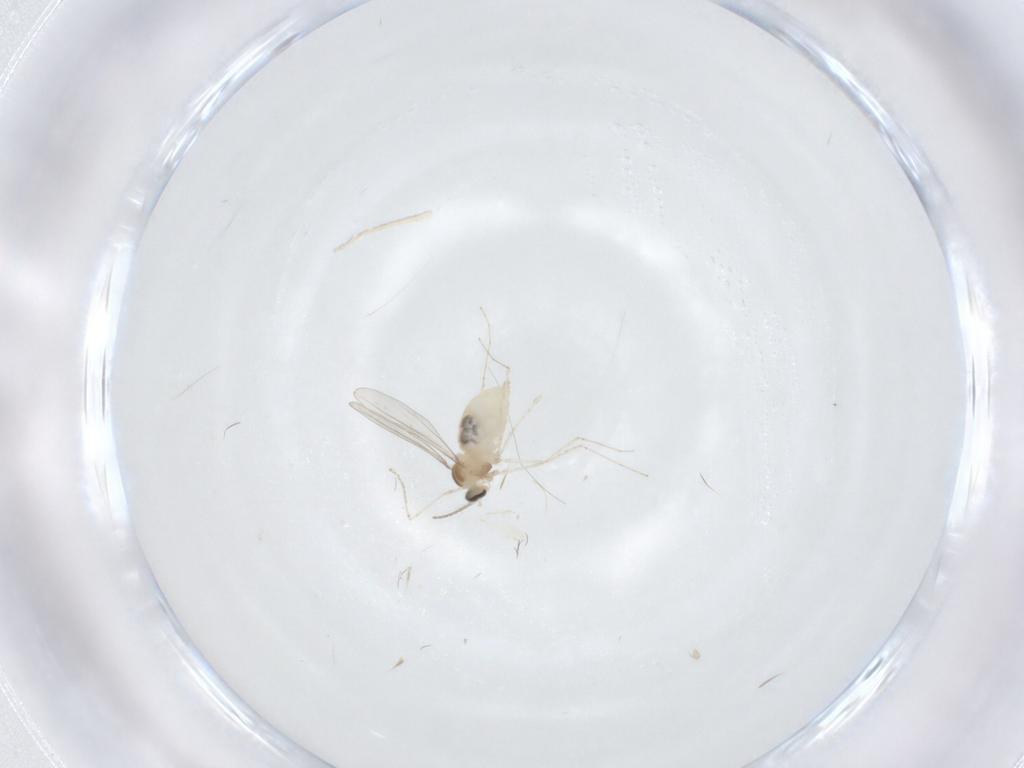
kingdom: Animalia
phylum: Arthropoda
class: Insecta
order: Diptera
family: Cecidomyiidae
